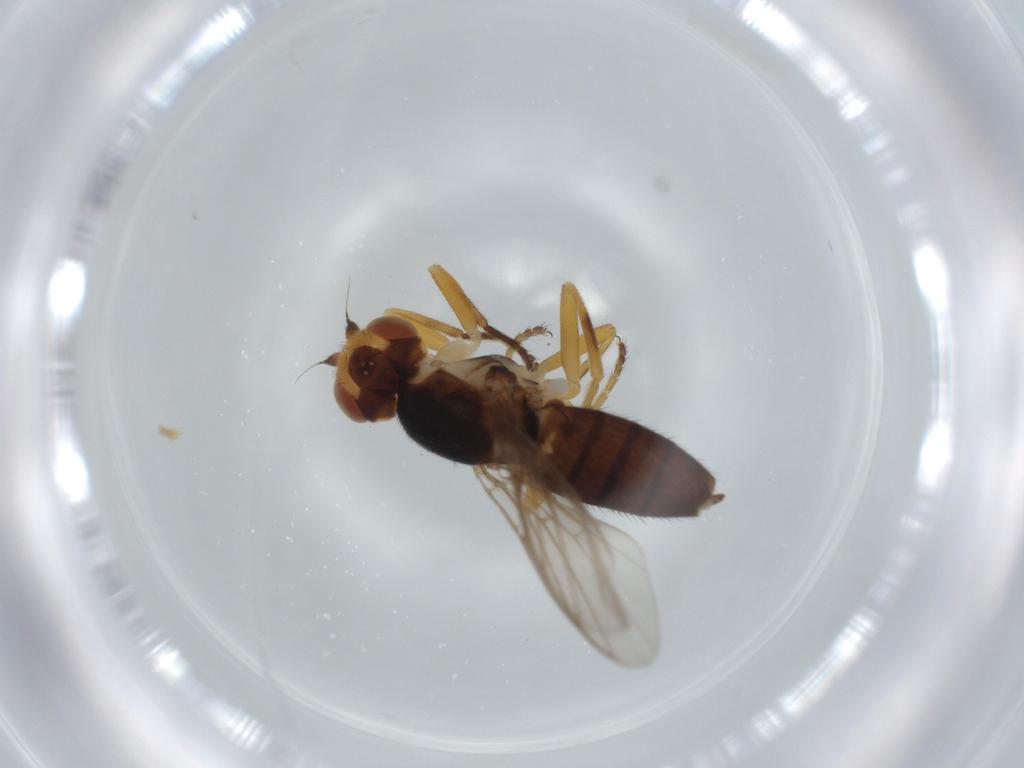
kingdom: Animalia
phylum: Arthropoda
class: Insecta
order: Diptera
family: Chloropidae
